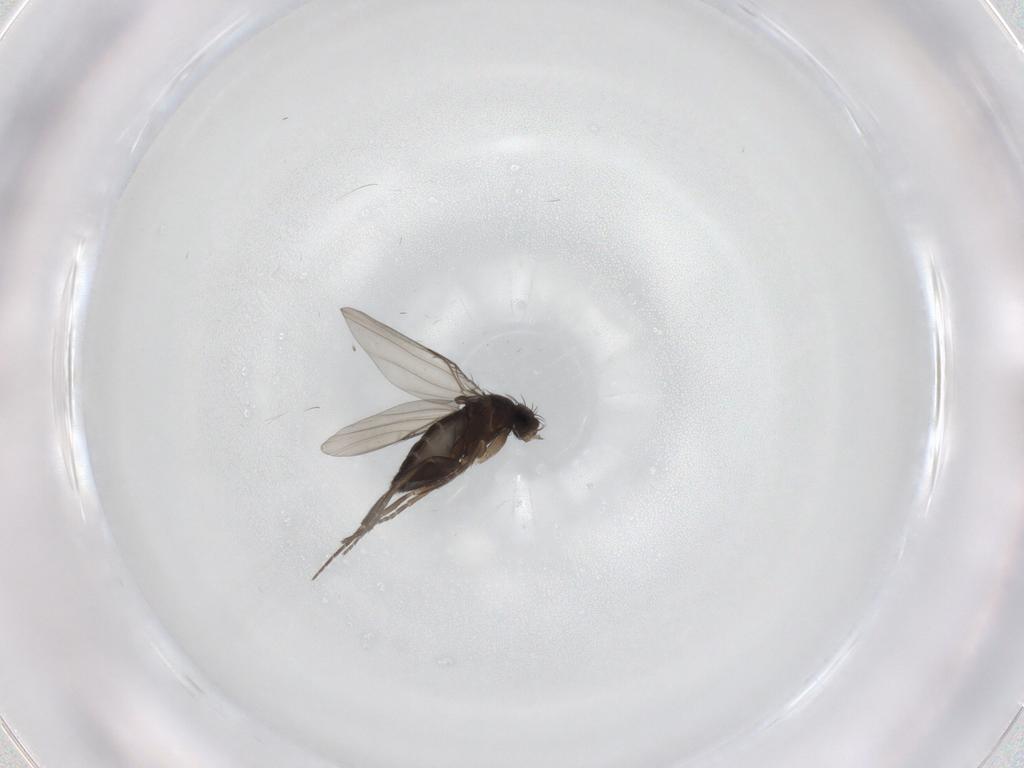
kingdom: Animalia
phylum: Arthropoda
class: Insecta
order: Diptera
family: Phoridae
